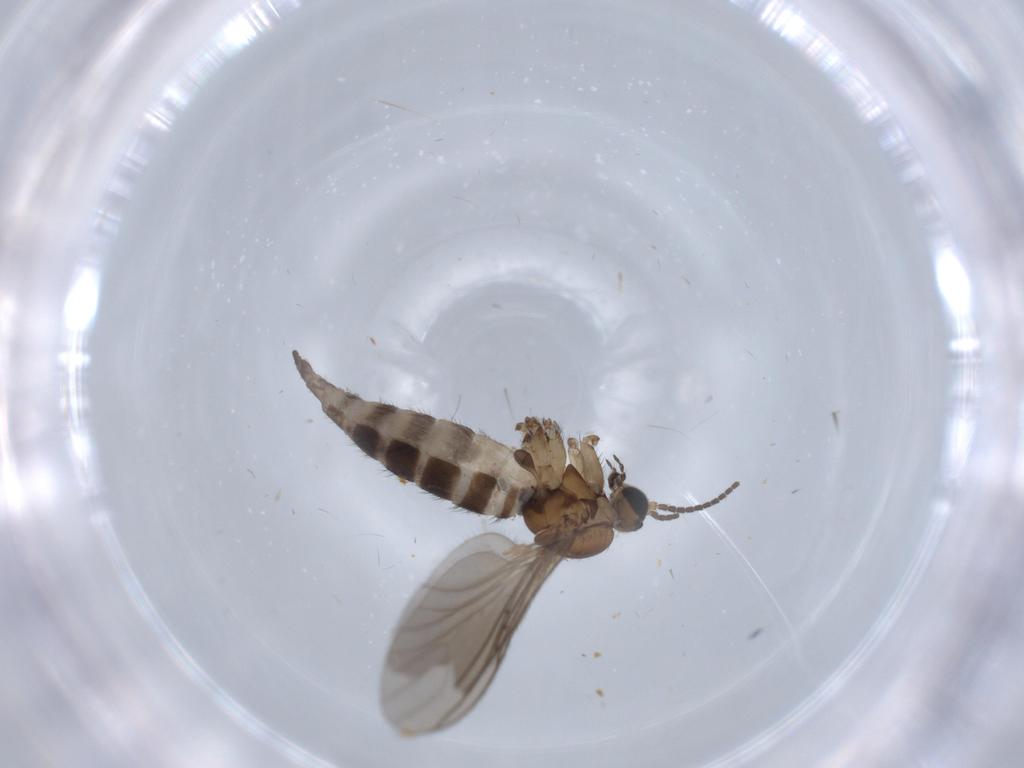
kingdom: Animalia
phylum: Arthropoda
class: Insecta
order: Diptera
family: Sciaridae
